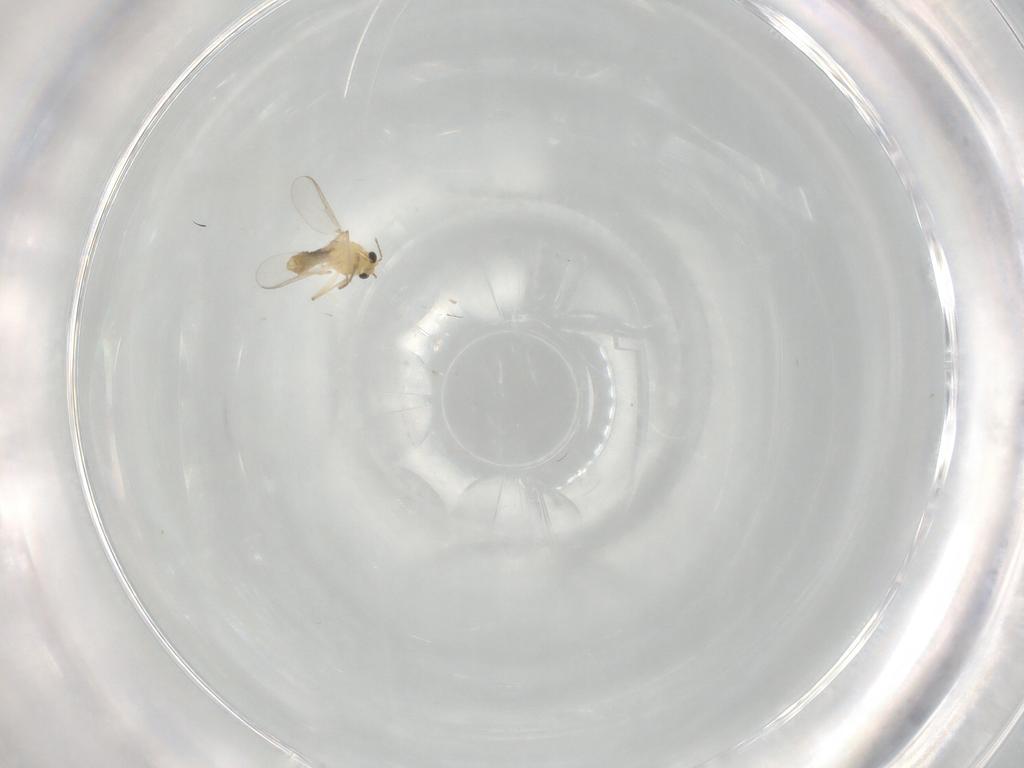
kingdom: Animalia
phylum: Arthropoda
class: Insecta
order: Diptera
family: Chironomidae
